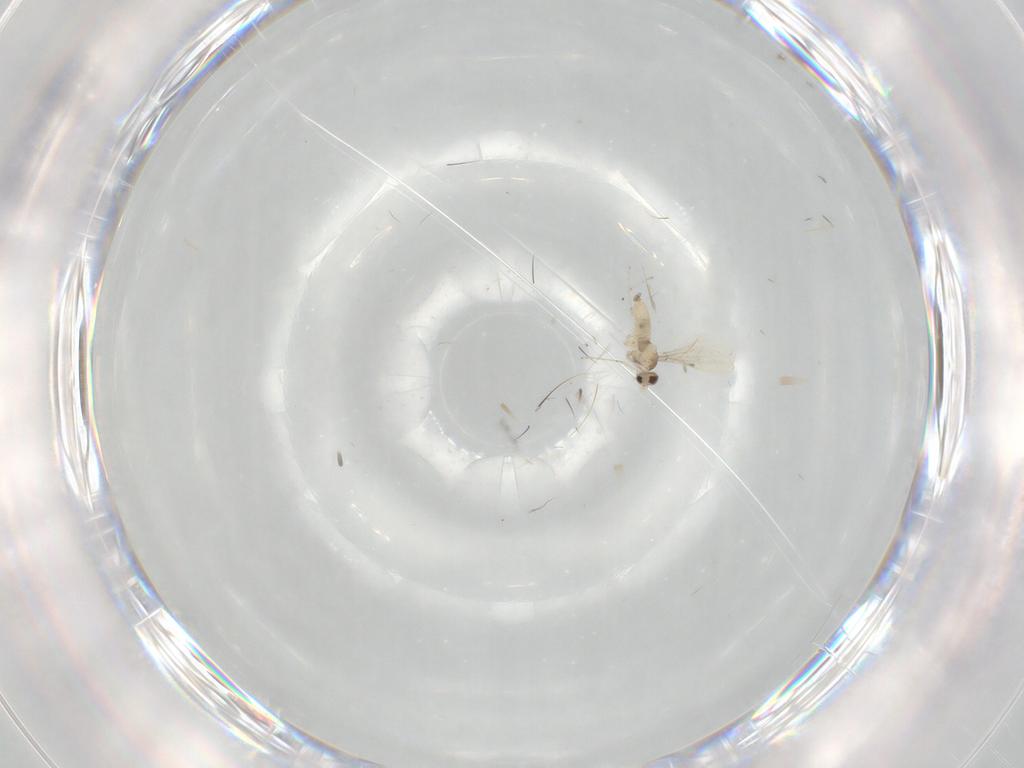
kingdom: Animalia
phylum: Arthropoda
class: Insecta
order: Diptera
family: Cecidomyiidae
